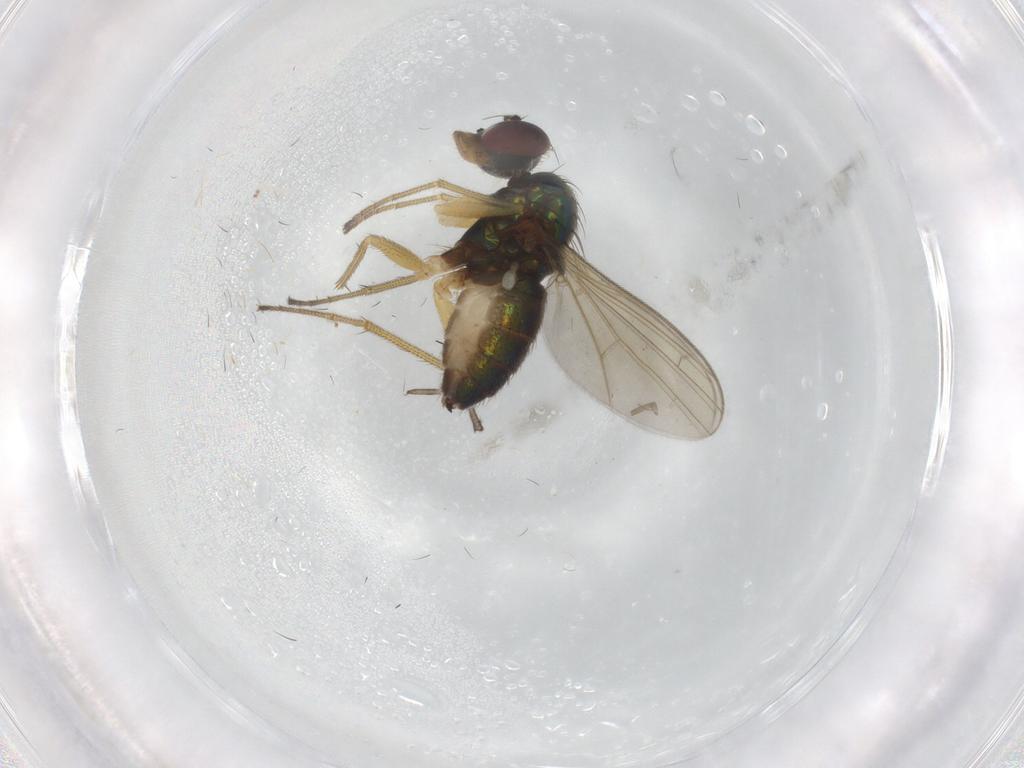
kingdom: Animalia
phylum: Arthropoda
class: Insecta
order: Diptera
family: Dolichopodidae
